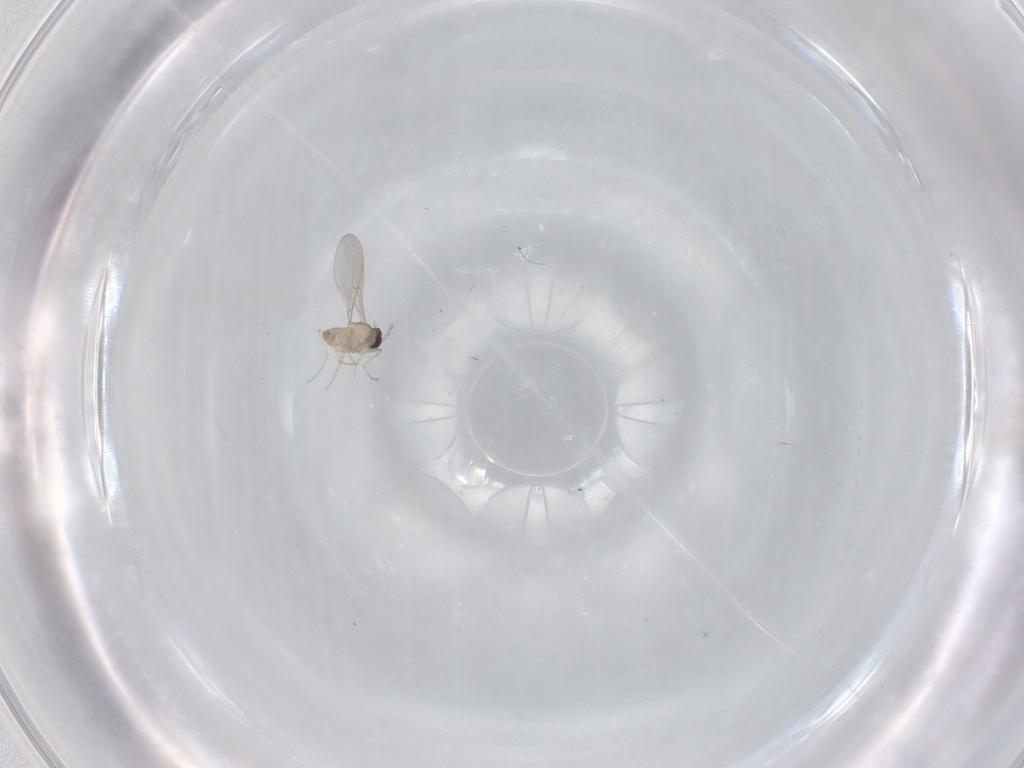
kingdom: Animalia
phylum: Arthropoda
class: Insecta
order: Diptera
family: Cecidomyiidae
